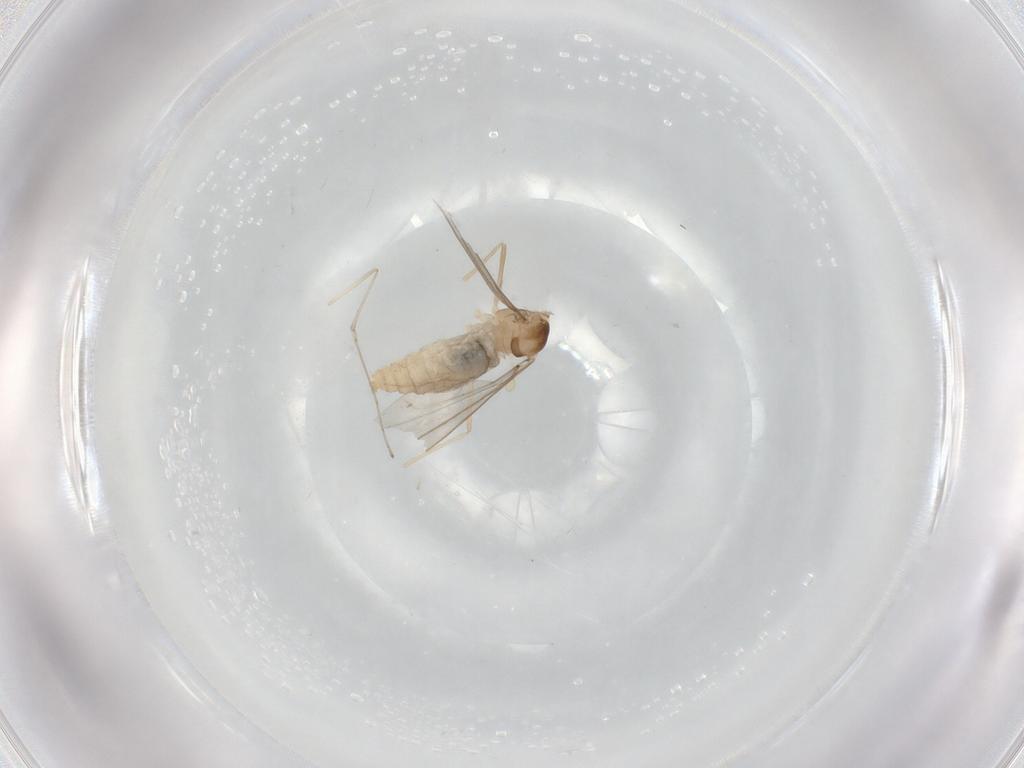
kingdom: Animalia
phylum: Arthropoda
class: Insecta
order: Diptera
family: Cecidomyiidae
